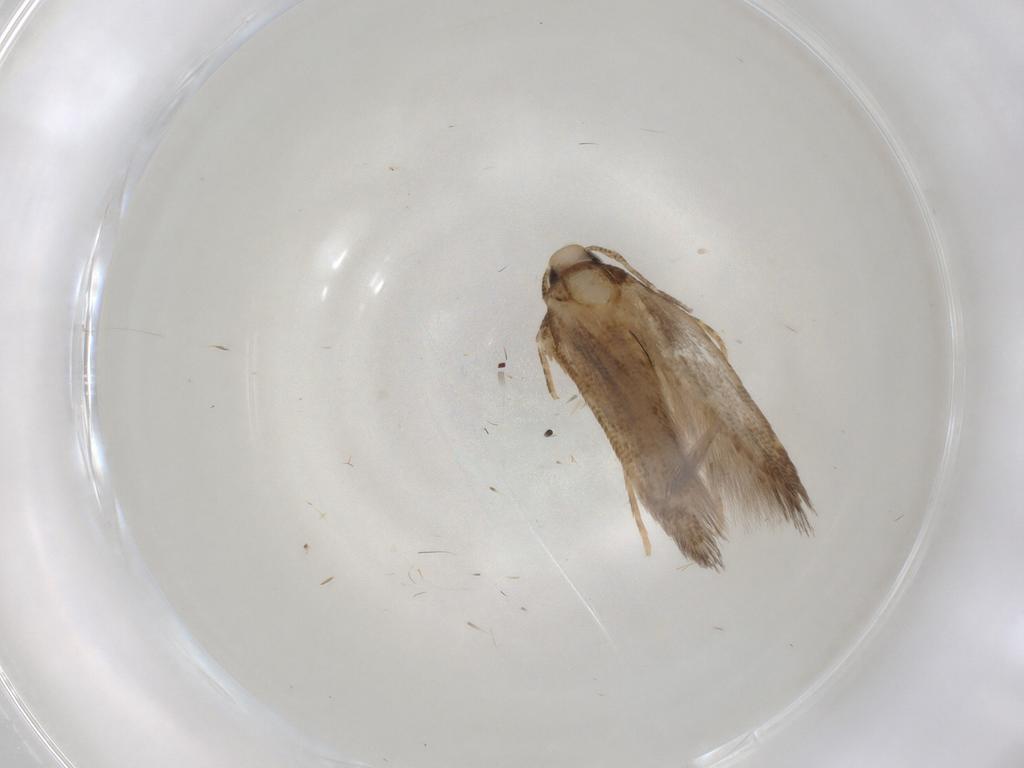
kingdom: Animalia
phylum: Arthropoda
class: Insecta
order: Lepidoptera
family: Cosmopterigidae
